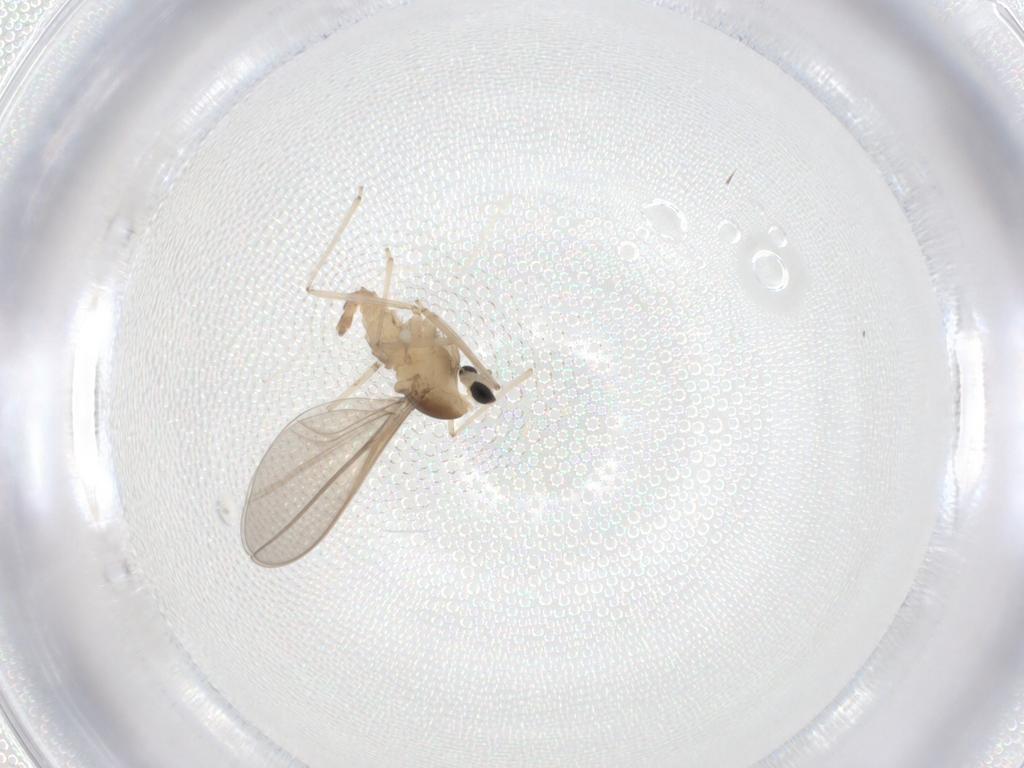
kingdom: Animalia
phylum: Arthropoda
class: Insecta
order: Diptera
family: Cecidomyiidae
